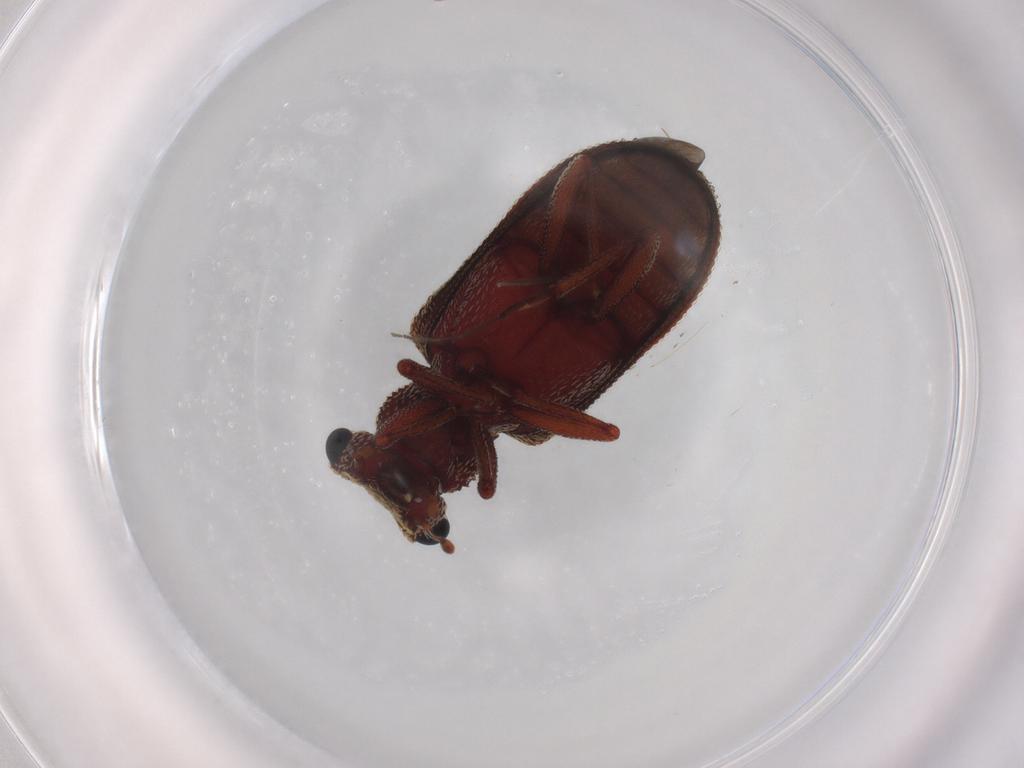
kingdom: Animalia
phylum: Arthropoda
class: Insecta
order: Coleoptera
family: Zopheridae
